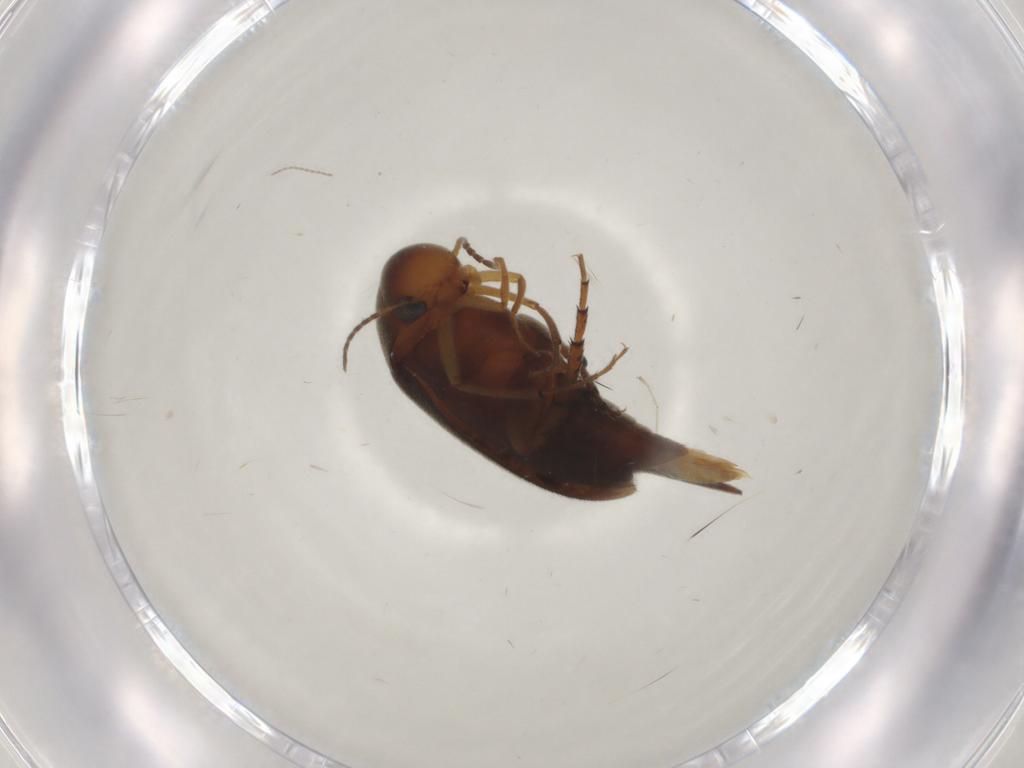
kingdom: Animalia
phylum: Arthropoda
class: Insecta
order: Coleoptera
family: Mordellidae
